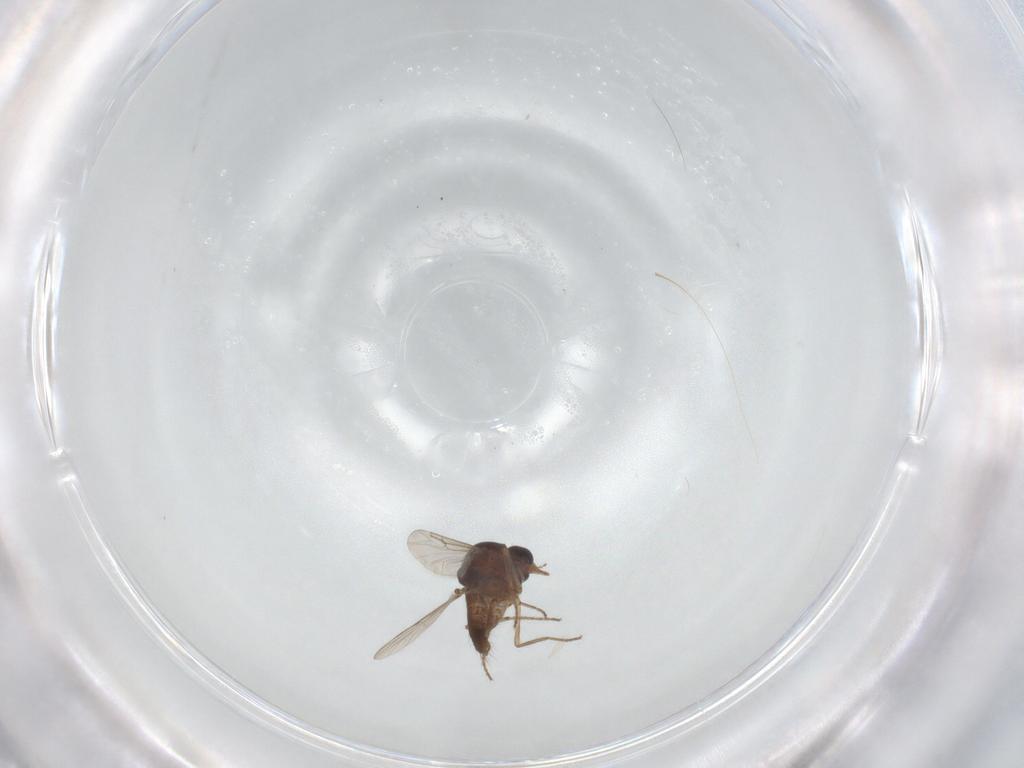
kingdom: Animalia
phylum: Arthropoda
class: Insecta
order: Diptera
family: Ceratopogonidae
